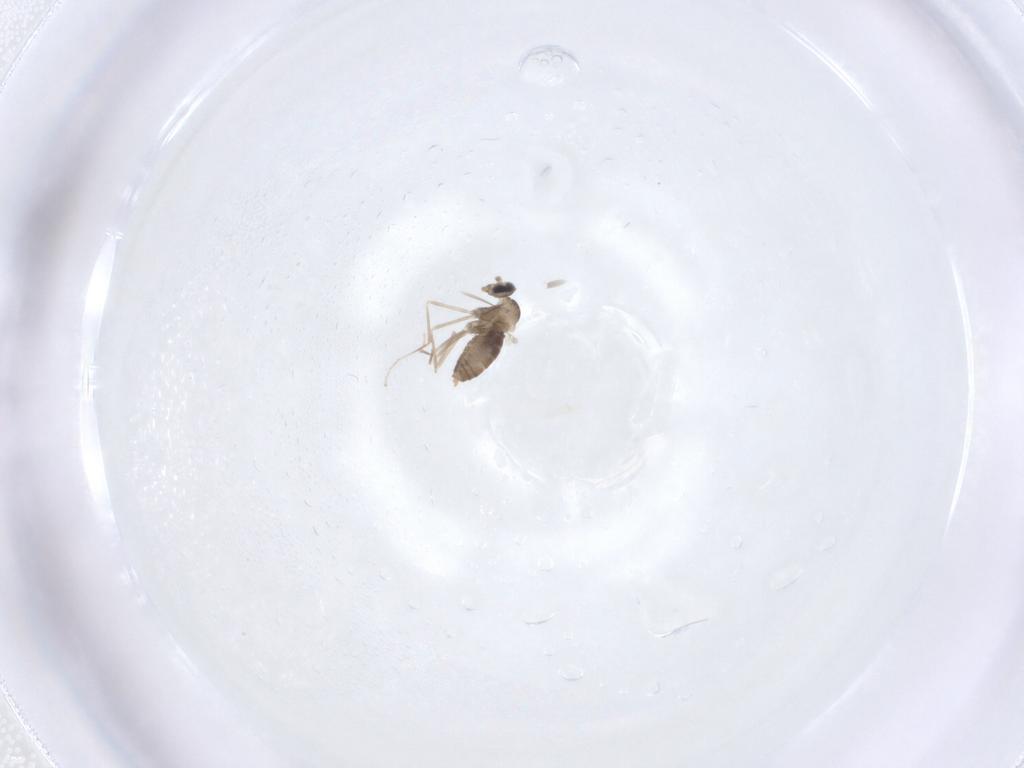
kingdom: Animalia
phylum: Arthropoda
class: Insecta
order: Diptera
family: Cecidomyiidae
